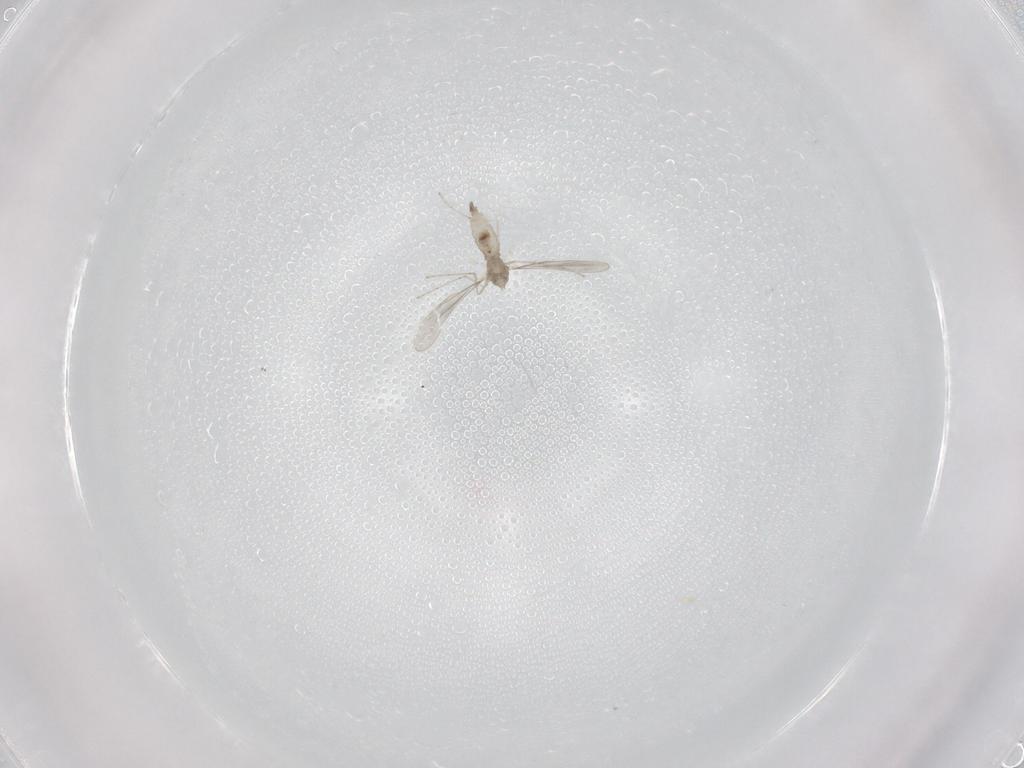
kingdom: Animalia
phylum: Arthropoda
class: Insecta
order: Diptera
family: Cecidomyiidae
